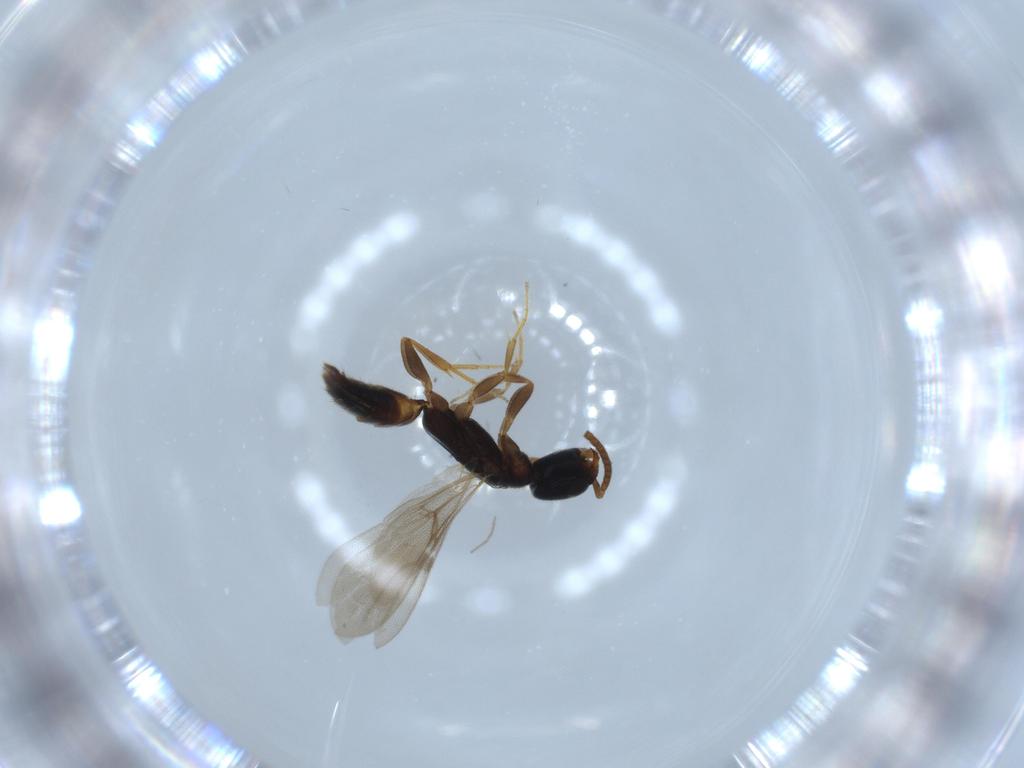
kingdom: Animalia
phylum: Arthropoda
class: Insecta
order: Hymenoptera
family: Bethylidae
